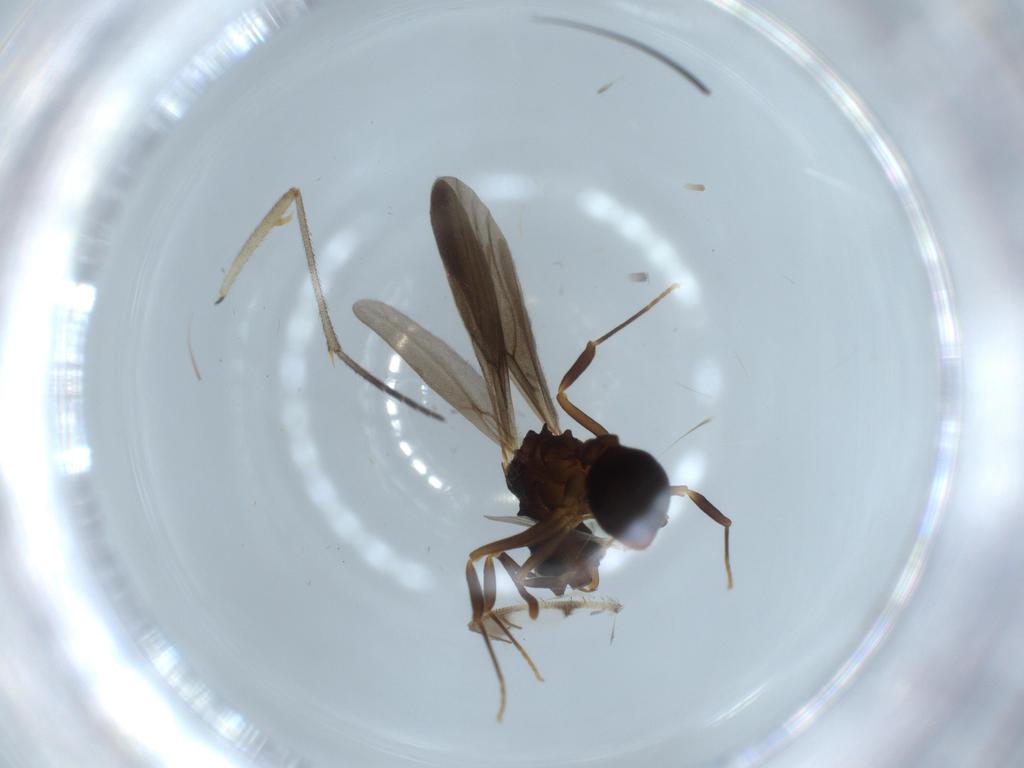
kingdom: Animalia
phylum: Arthropoda
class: Insecta
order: Hymenoptera
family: Formicidae
